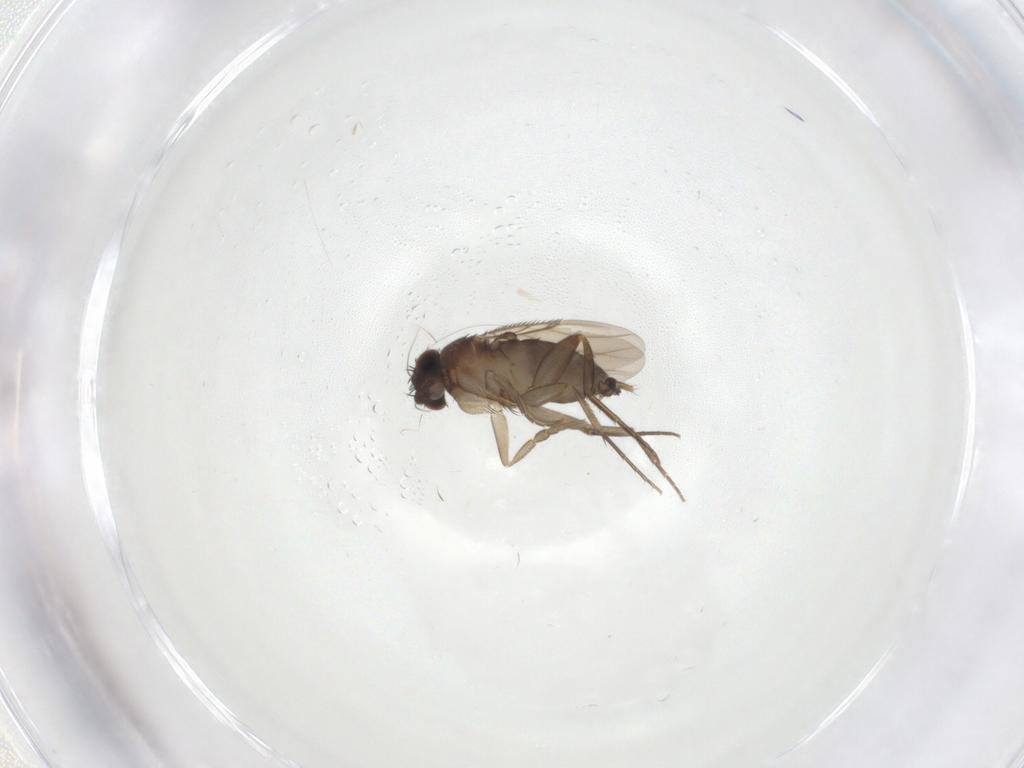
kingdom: Animalia
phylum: Arthropoda
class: Insecta
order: Diptera
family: Phoridae
